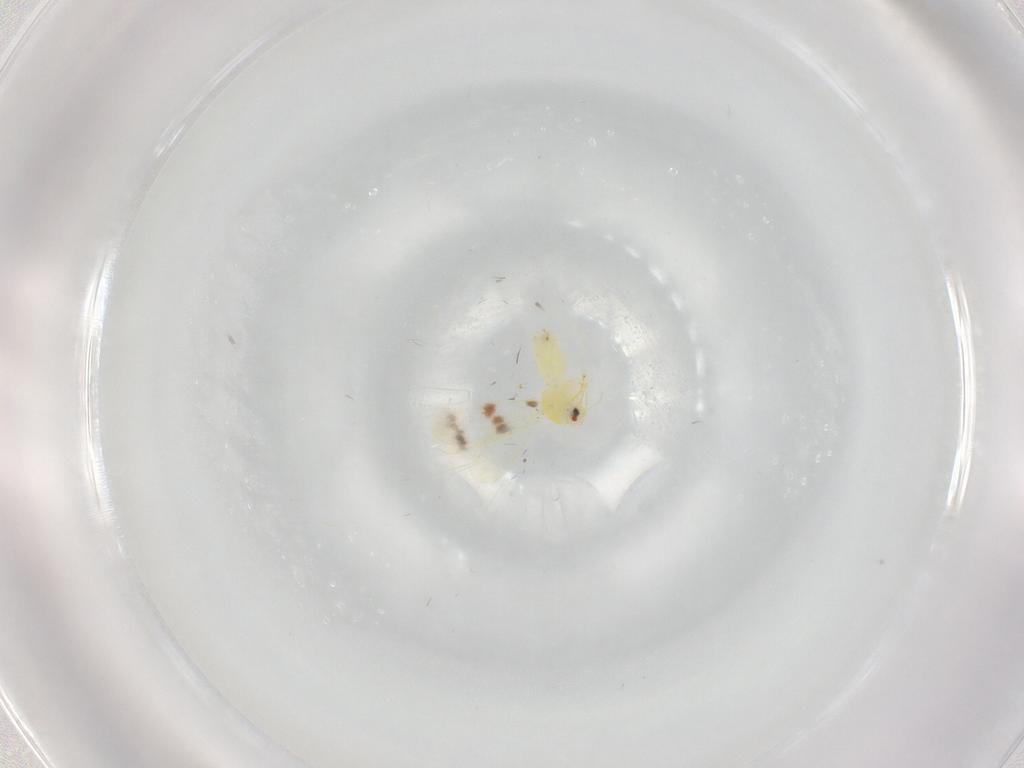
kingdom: Animalia
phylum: Arthropoda
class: Insecta
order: Hemiptera
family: Aleyrodidae
